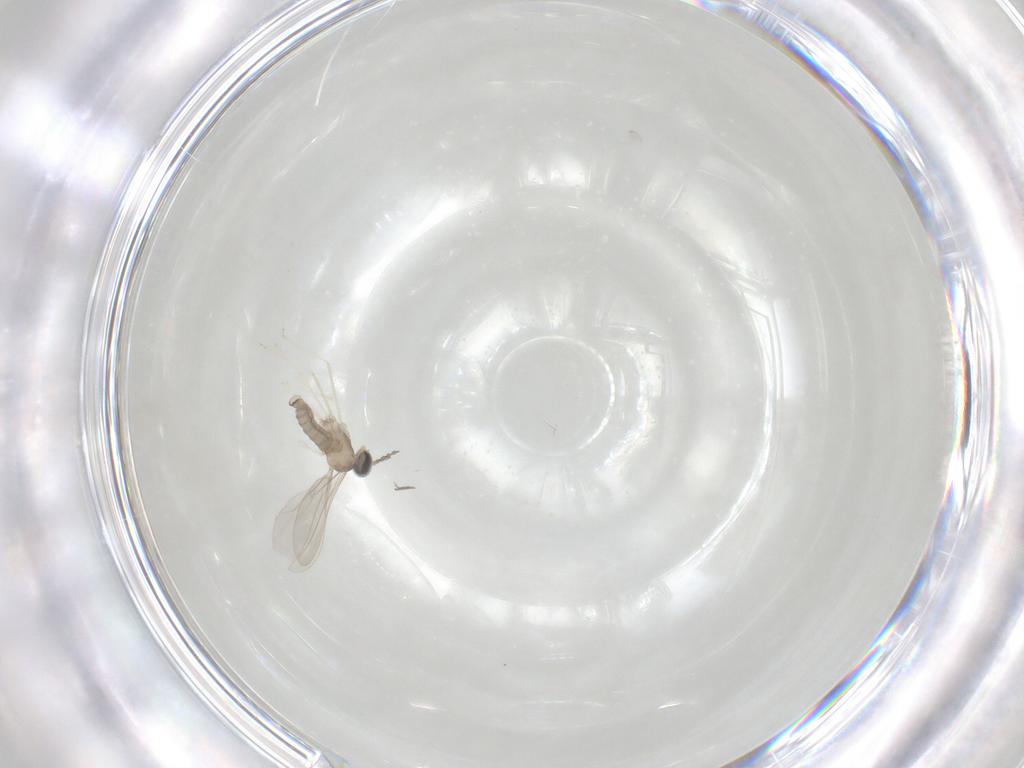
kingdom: Animalia
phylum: Arthropoda
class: Insecta
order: Diptera
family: Cecidomyiidae
